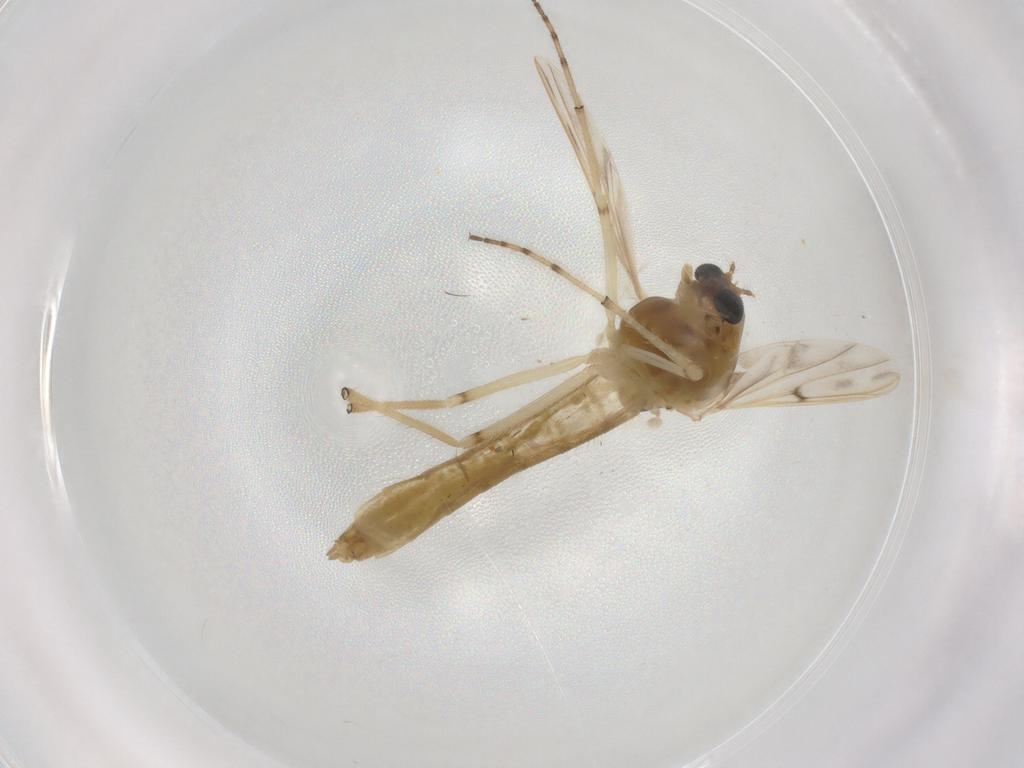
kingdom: Animalia
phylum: Arthropoda
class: Insecta
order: Diptera
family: Chironomidae
